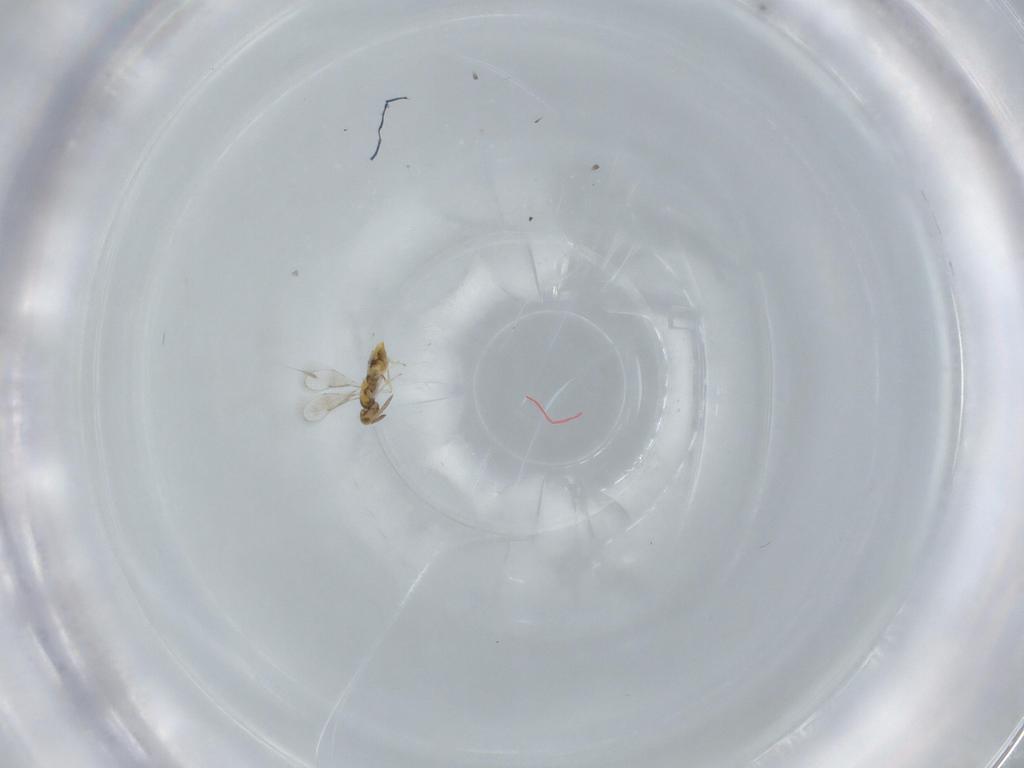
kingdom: Animalia
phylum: Arthropoda
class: Insecta
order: Hymenoptera
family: Aphelinidae
